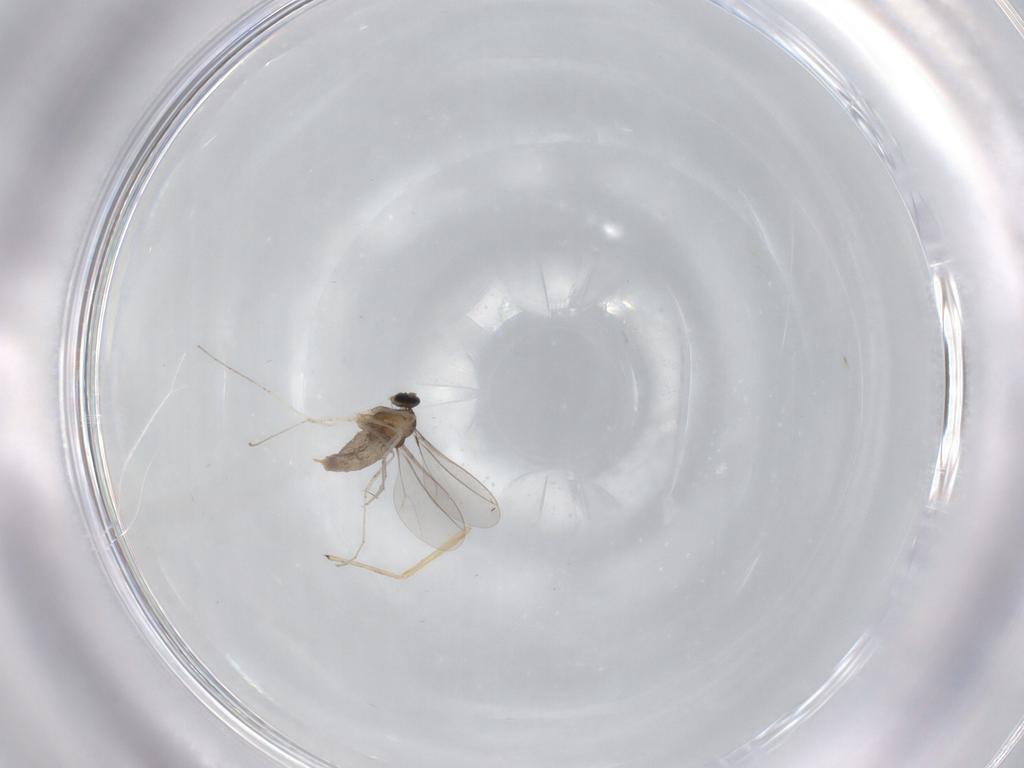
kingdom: Animalia
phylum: Arthropoda
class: Insecta
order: Diptera
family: Cecidomyiidae
